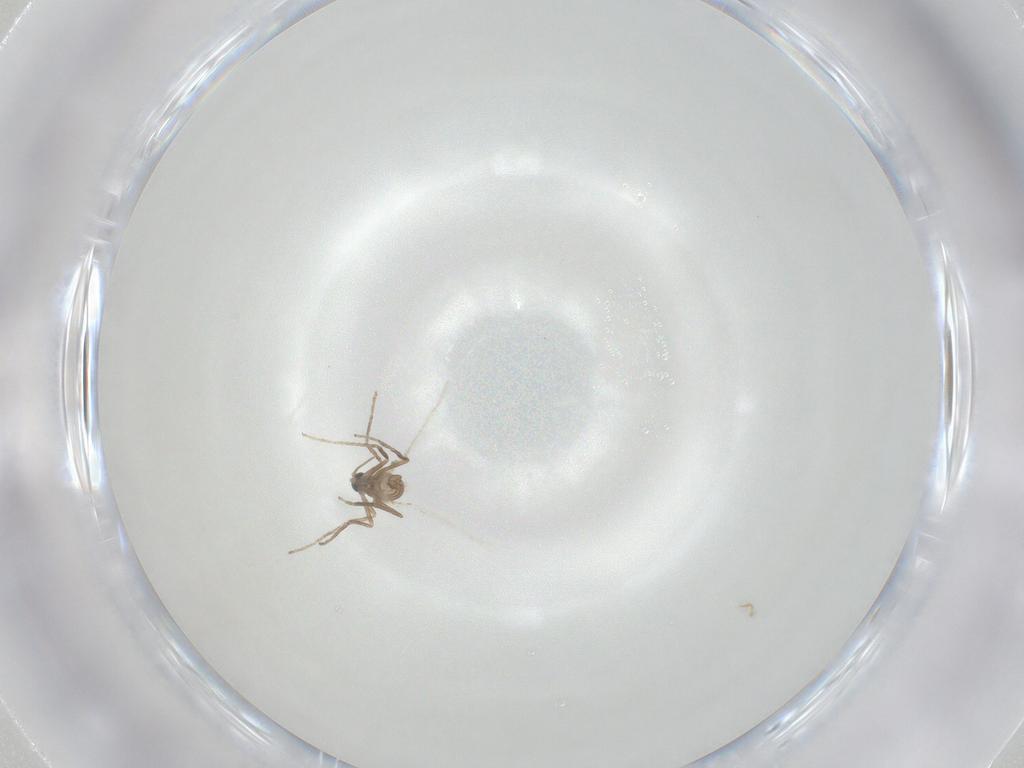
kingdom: Animalia
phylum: Arthropoda
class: Insecta
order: Diptera
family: Cecidomyiidae
